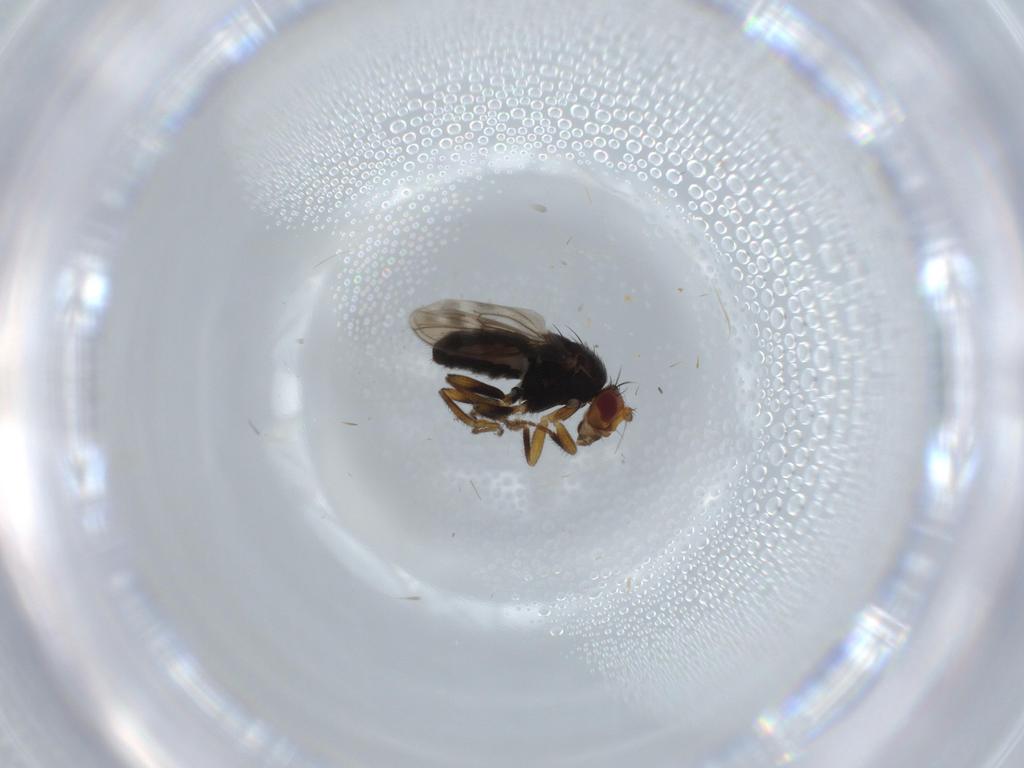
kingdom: Animalia
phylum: Arthropoda
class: Insecta
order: Diptera
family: Sphaeroceridae
